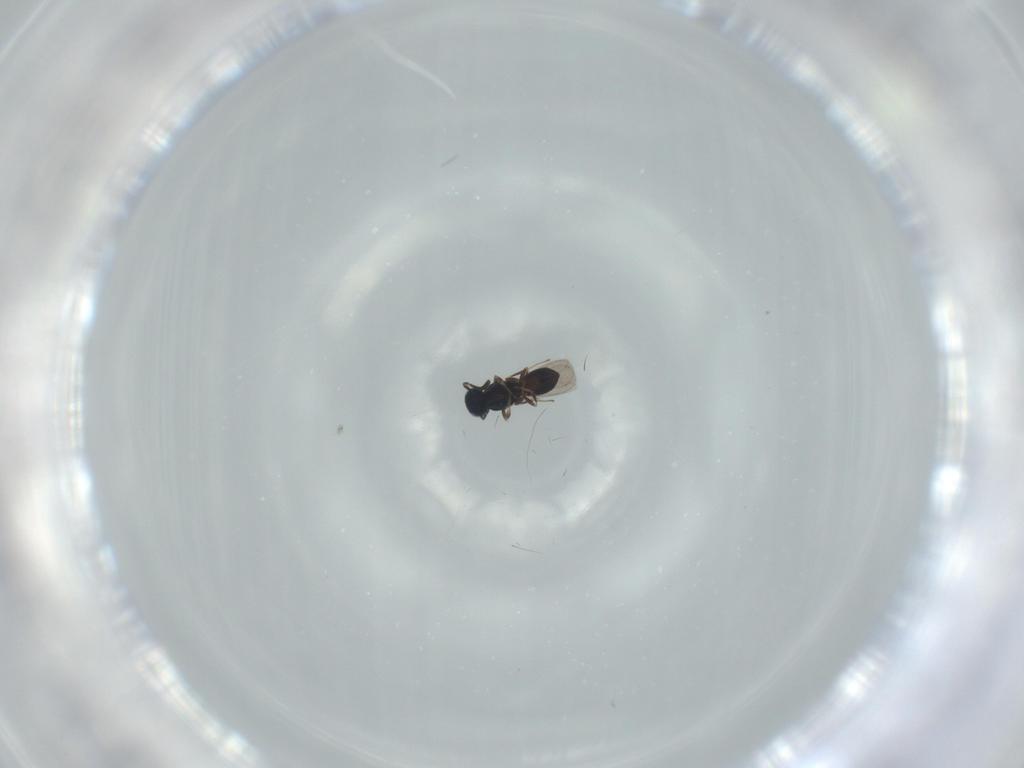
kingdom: Animalia
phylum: Arthropoda
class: Insecta
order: Hymenoptera
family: Scelionidae
